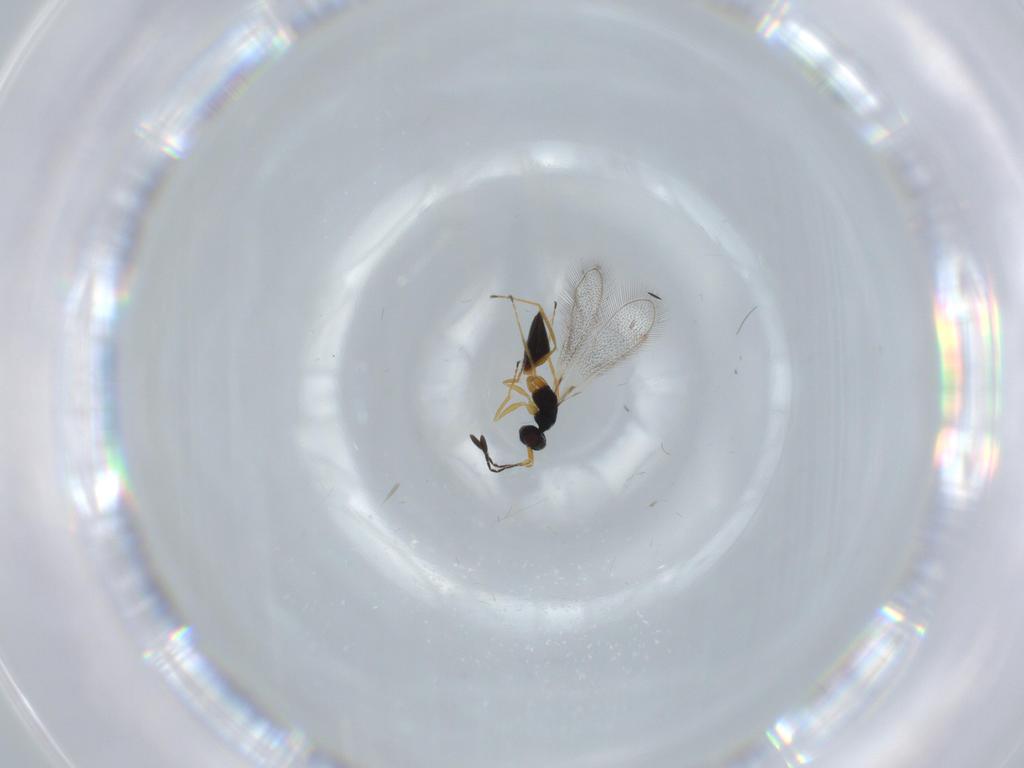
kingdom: Animalia
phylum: Arthropoda
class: Insecta
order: Hymenoptera
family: Mymaridae
